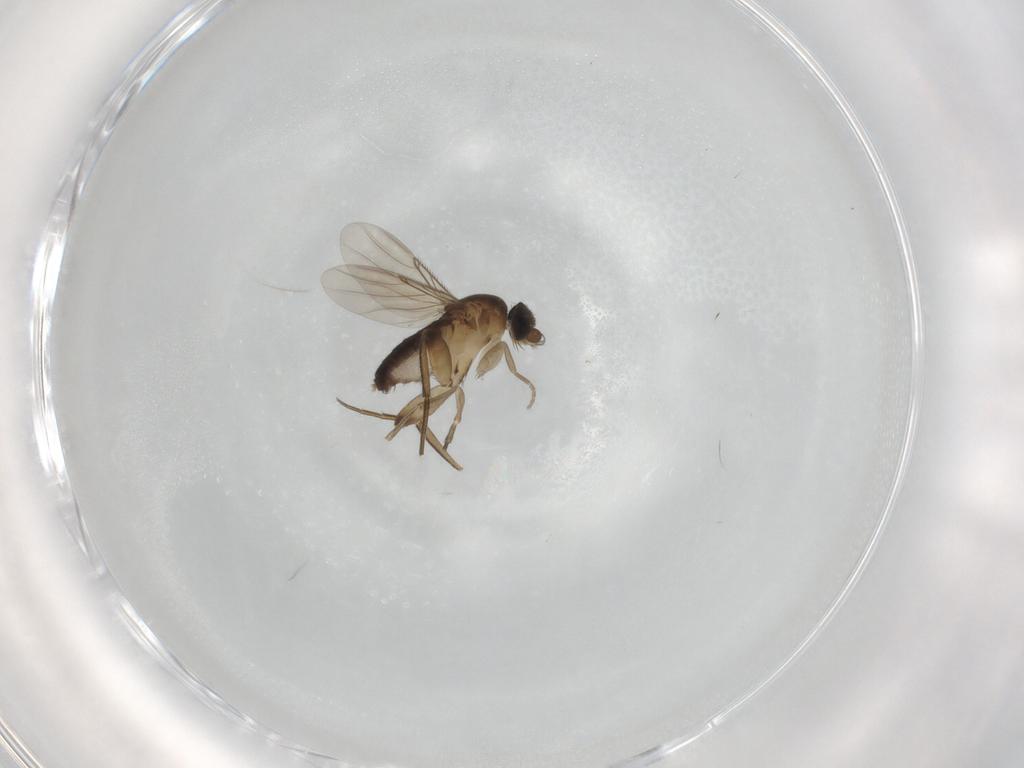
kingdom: Animalia
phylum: Arthropoda
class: Insecta
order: Diptera
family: Phoridae
